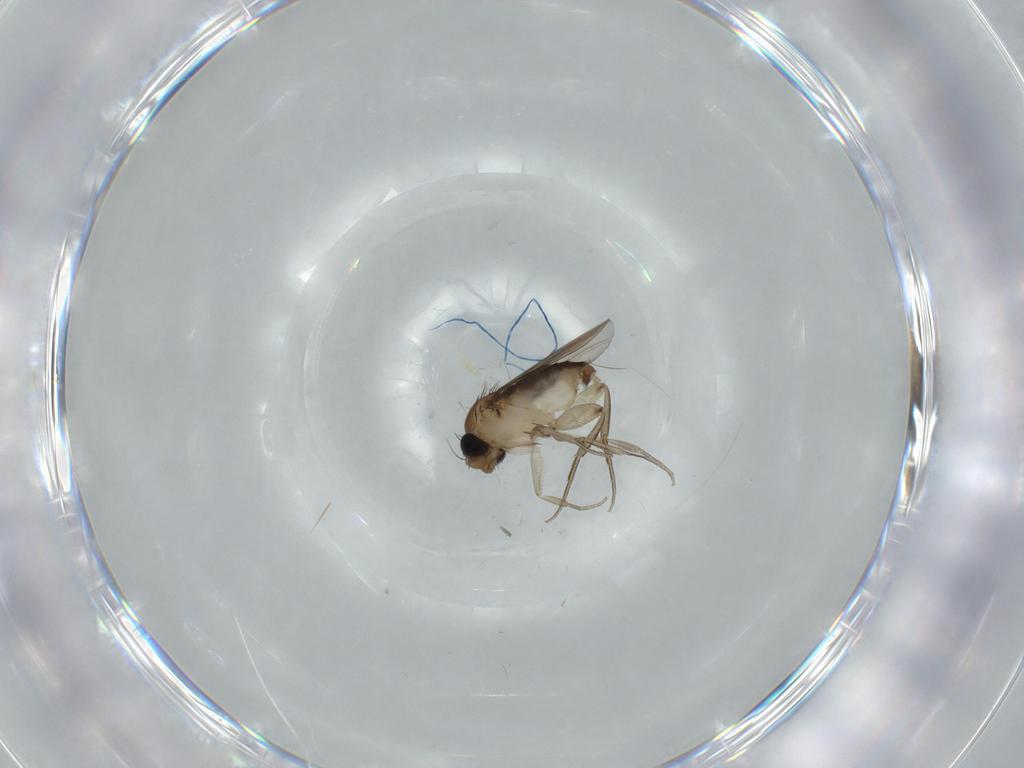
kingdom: Animalia
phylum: Arthropoda
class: Insecta
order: Diptera
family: Phoridae
